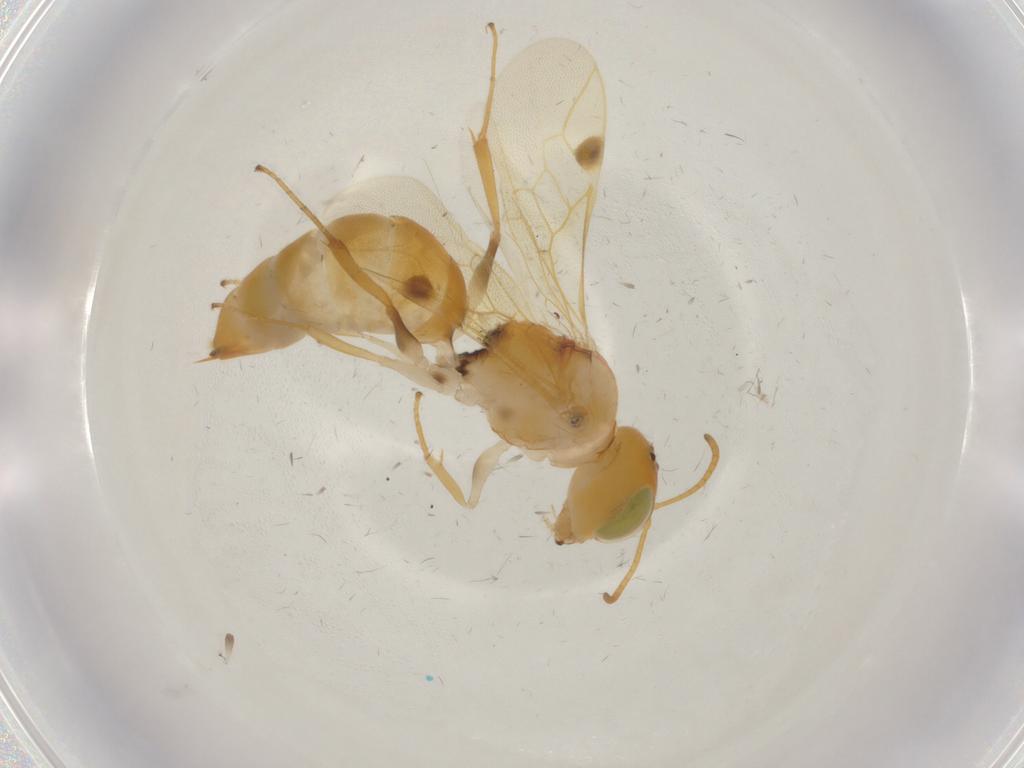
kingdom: Animalia
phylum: Arthropoda
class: Insecta
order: Hymenoptera
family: Pemphredonidae
